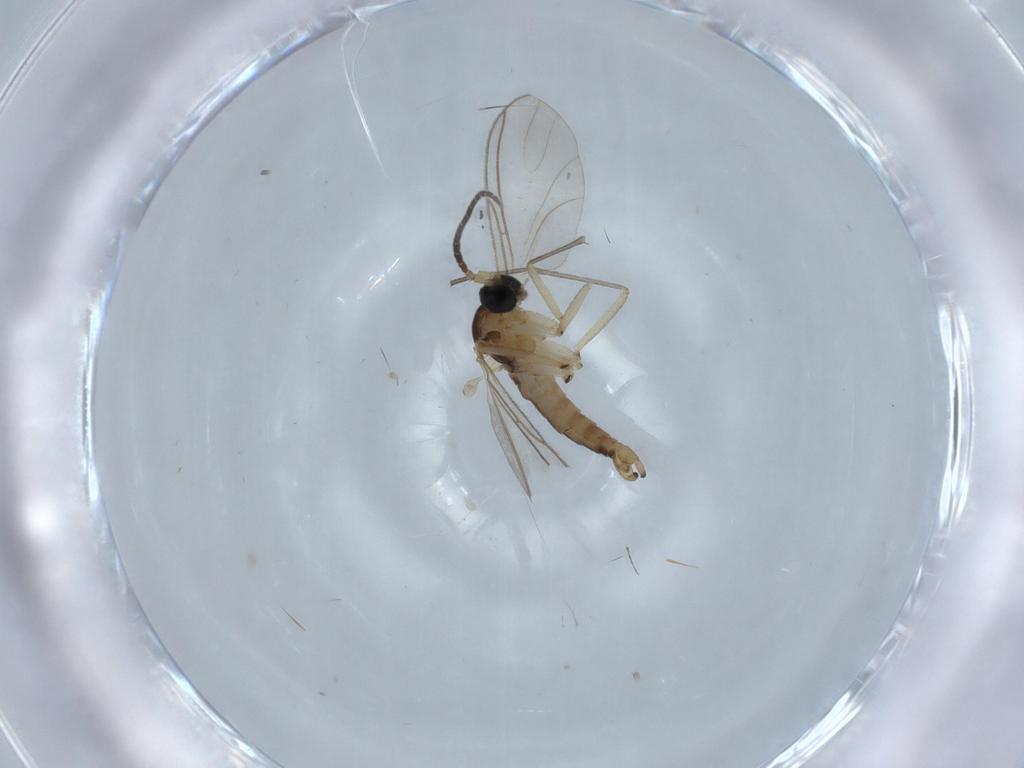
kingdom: Animalia
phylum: Arthropoda
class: Insecta
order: Diptera
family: Sciaridae
